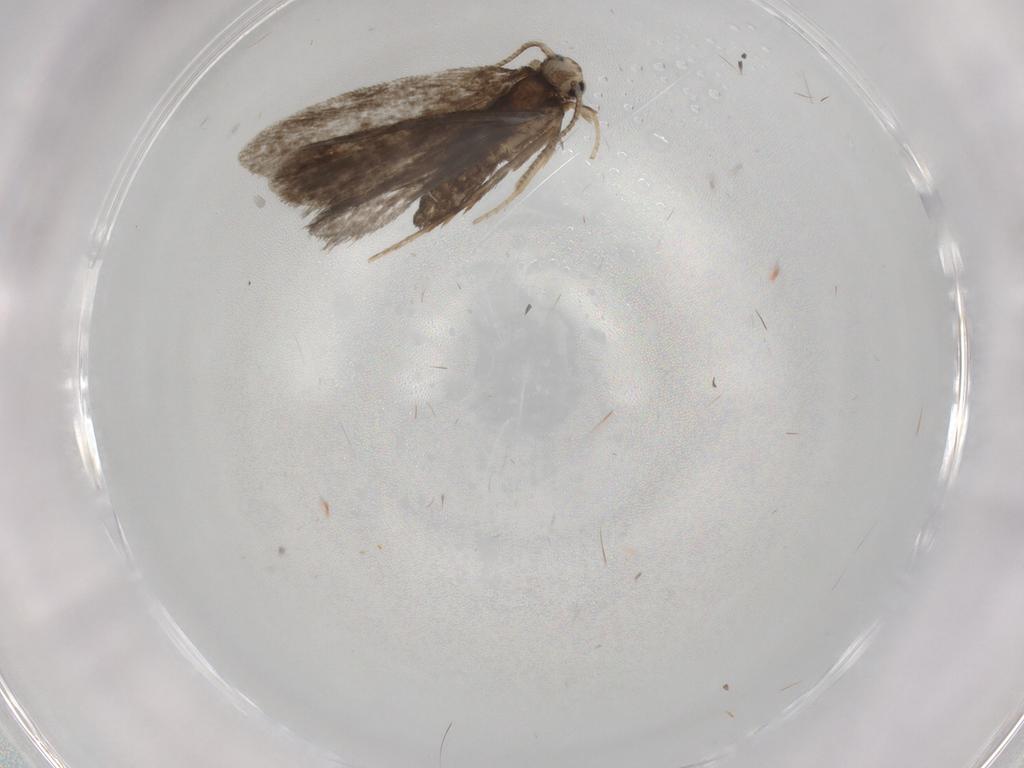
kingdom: Animalia
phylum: Arthropoda
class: Insecta
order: Lepidoptera
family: Psychidae
